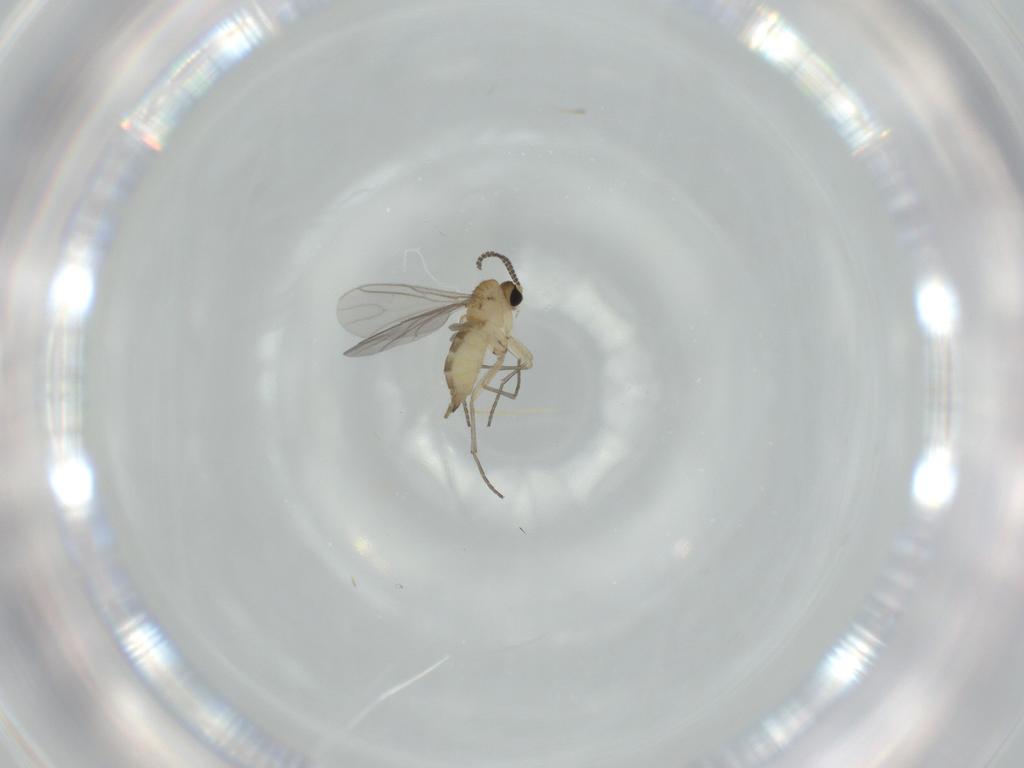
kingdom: Animalia
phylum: Arthropoda
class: Insecta
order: Diptera
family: Sciaridae
